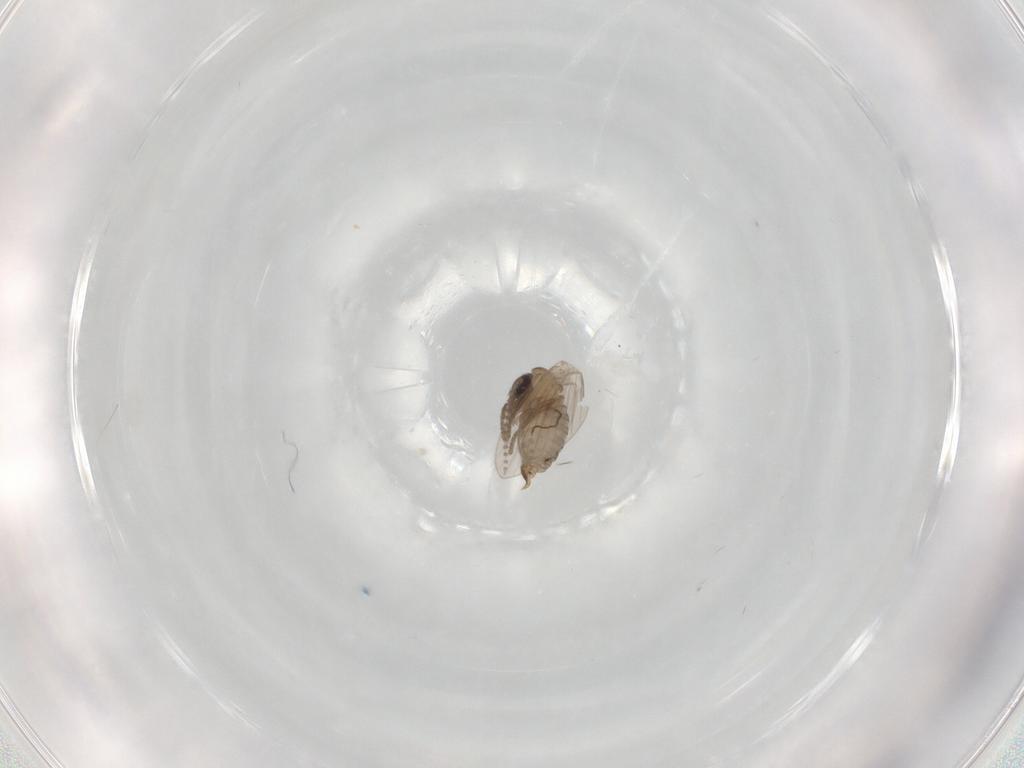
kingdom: Animalia
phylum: Arthropoda
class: Insecta
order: Diptera
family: Psychodidae
